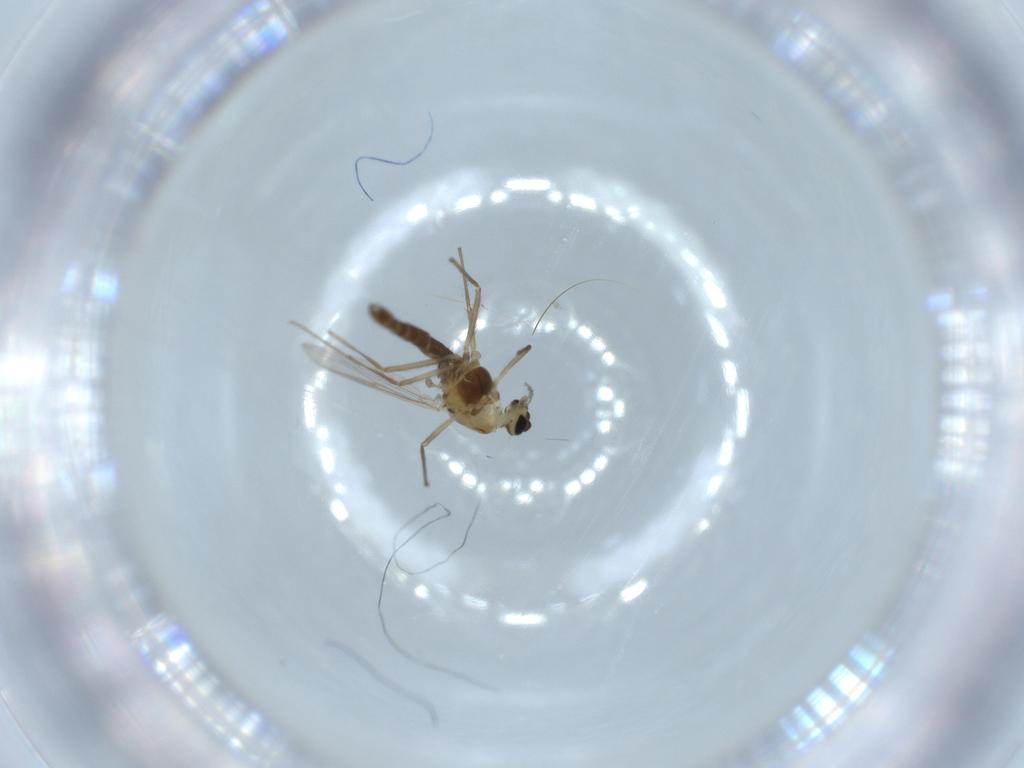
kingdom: Animalia
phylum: Arthropoda
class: Insecta
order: Diptera
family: Chironomidae
